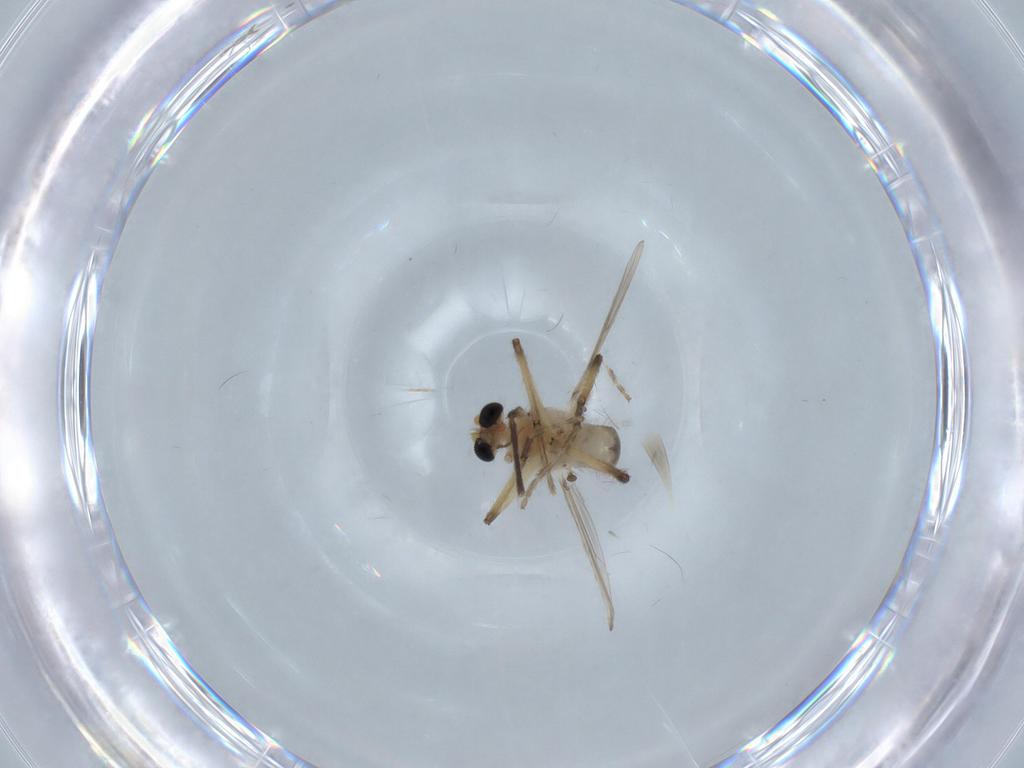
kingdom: Animalia
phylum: Arthropoda
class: Insecta
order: Diptera
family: Chironomidae
